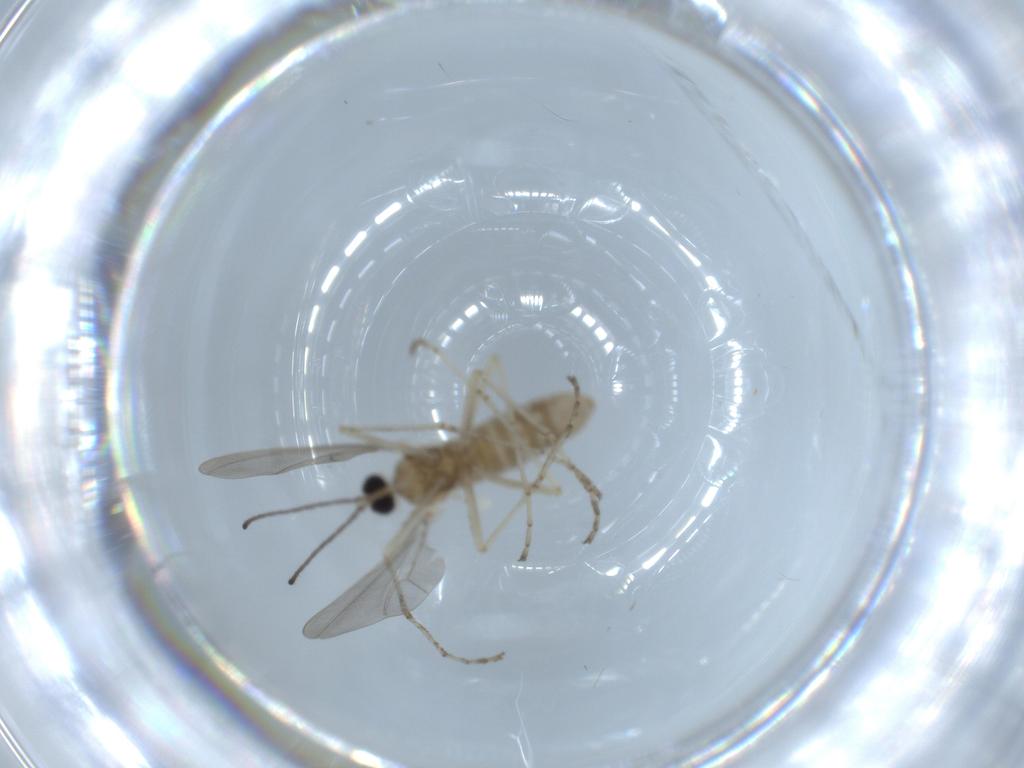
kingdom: Animalia
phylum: Arthropoda
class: Insecta
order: Diptera
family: Cecidomyiidae
